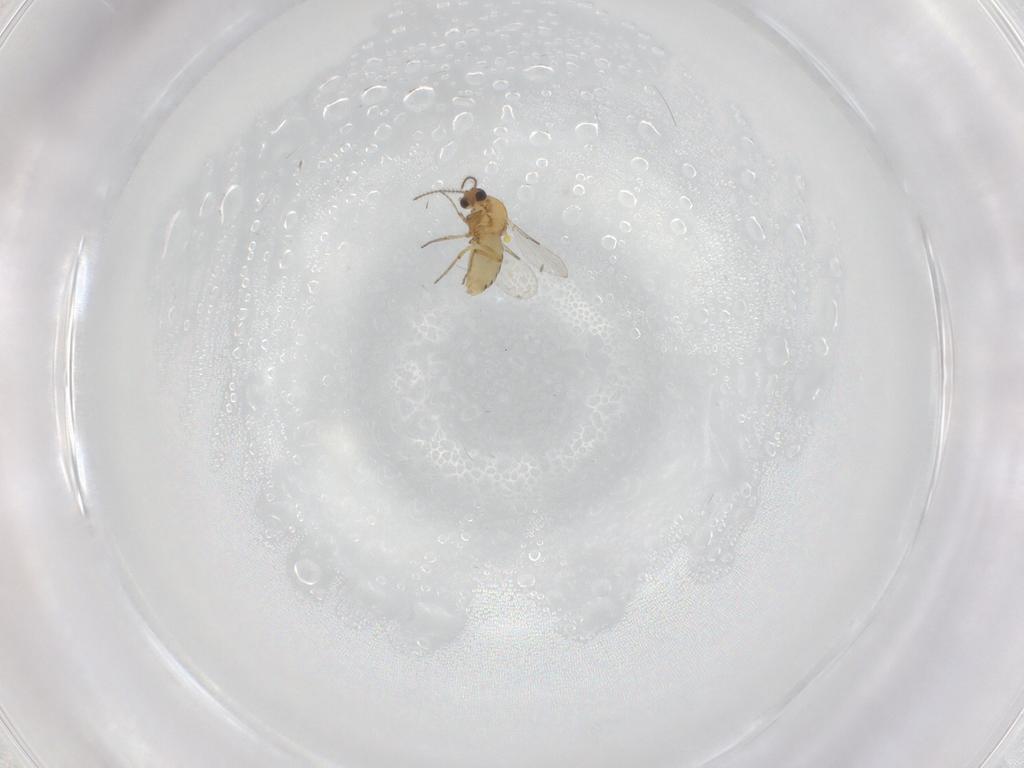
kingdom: Animalia
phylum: Arthropoda
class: Insecta
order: Diptera
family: Ceratopogonidae
